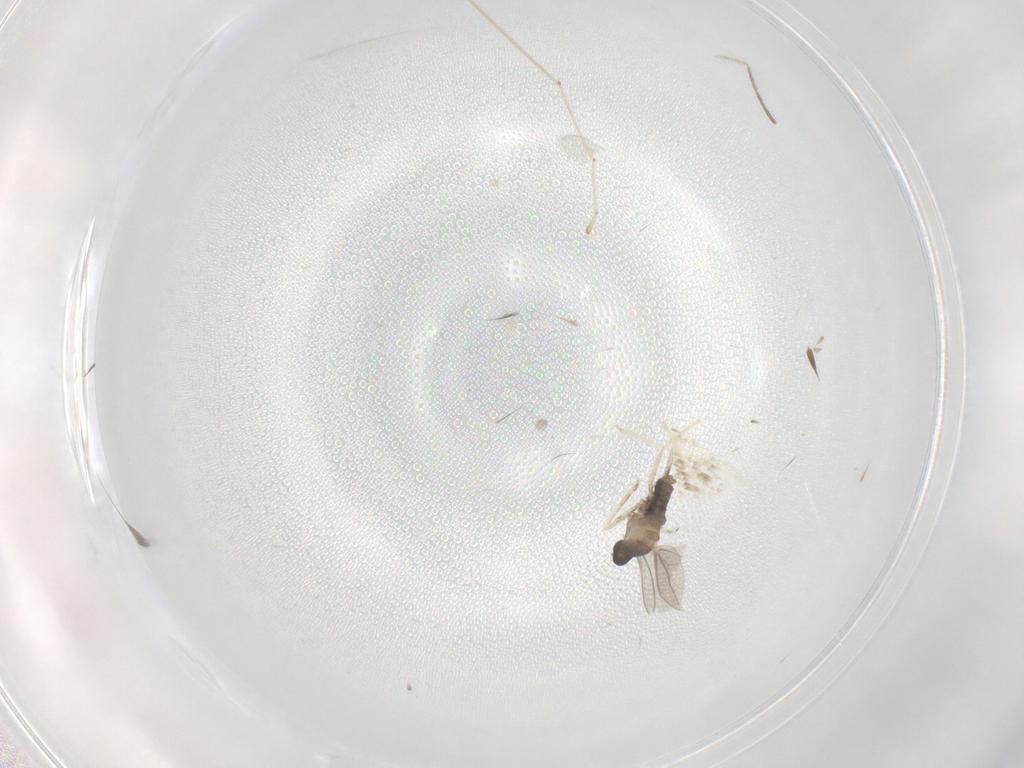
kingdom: Animalia
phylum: Arthropoda
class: Insecta
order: Diptera
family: Cecidomyiidae
